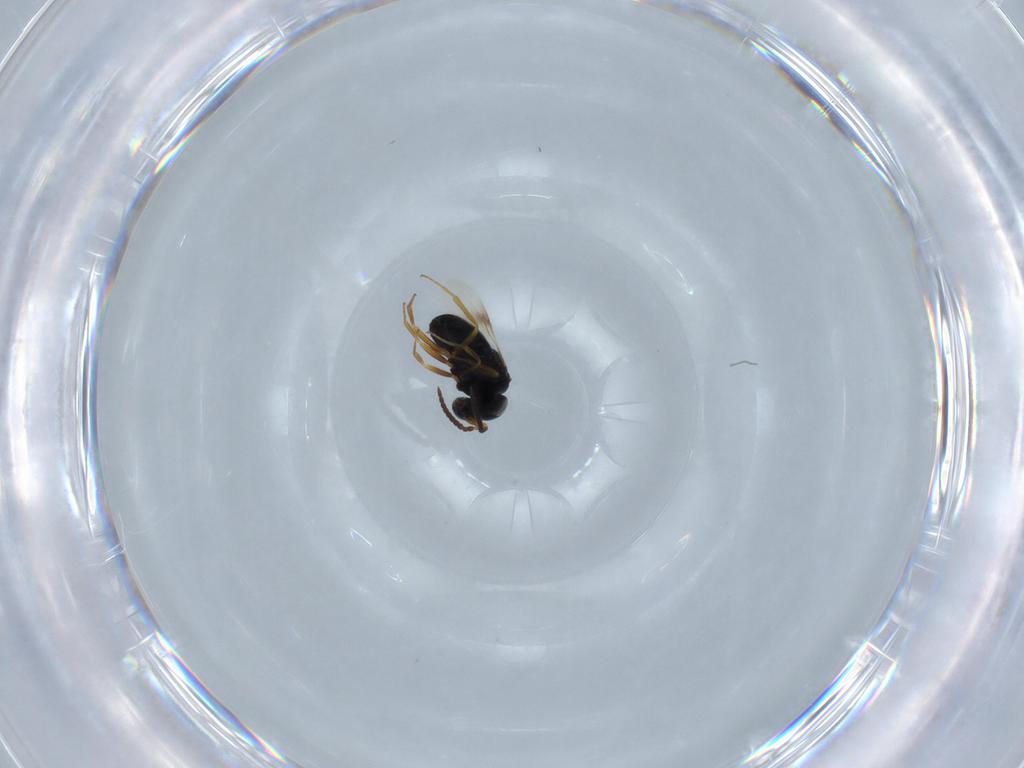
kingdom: Animalia
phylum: Arthropoda
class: Insecta
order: Hymenoptera
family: Scelionidae
